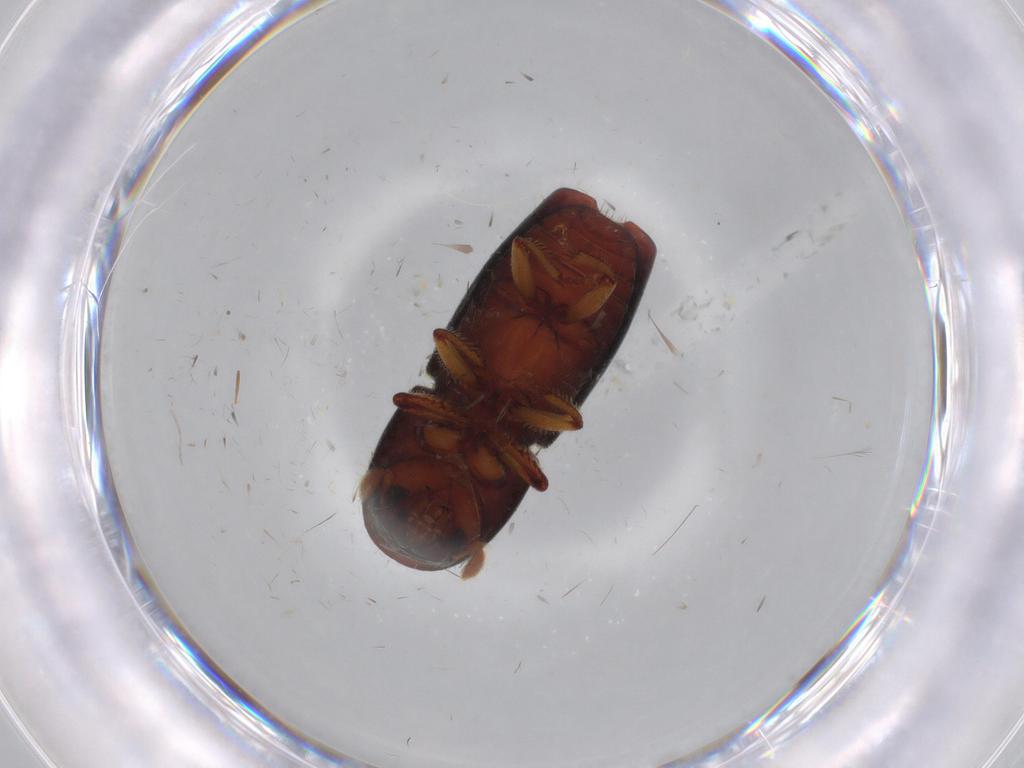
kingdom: Animalia
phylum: Arthropoda
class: Insecta
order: Coleoptera
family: Curculionidae
